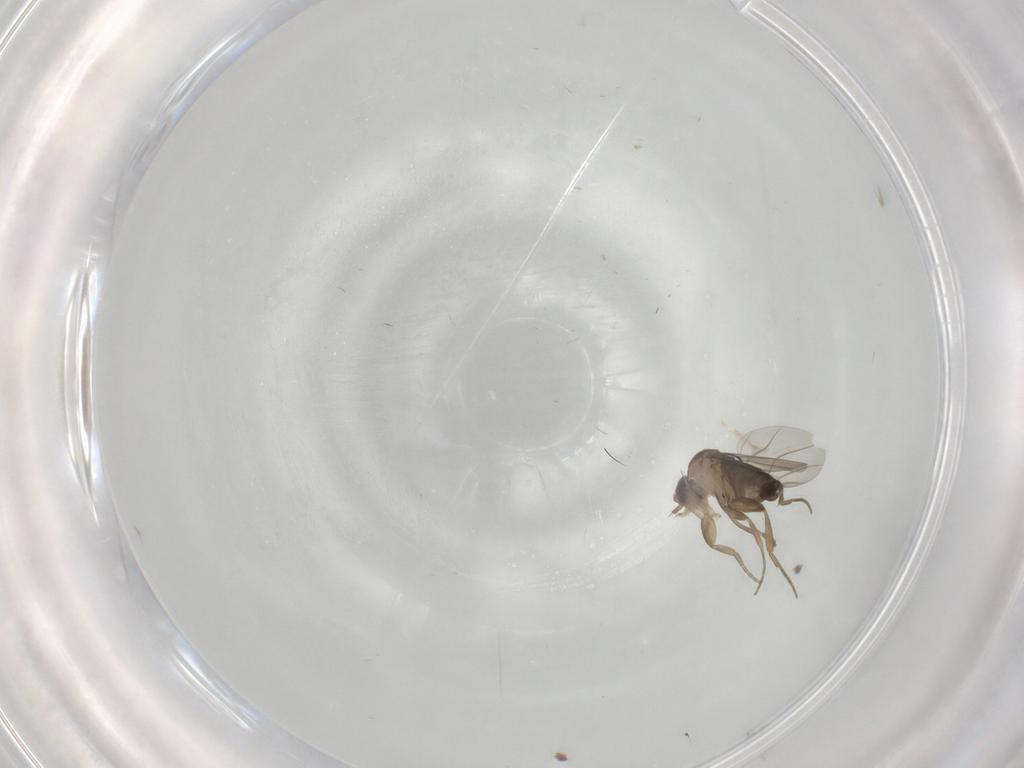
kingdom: Animalia
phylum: Arthropoda
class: Insecta
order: Diptera
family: Phoridae
